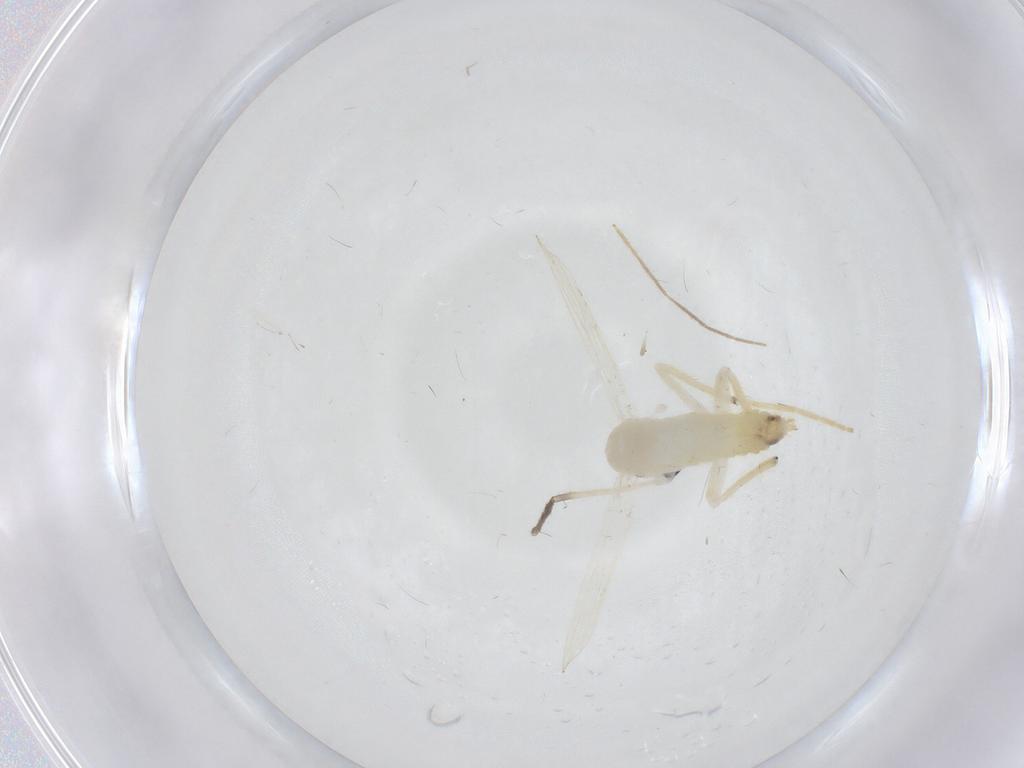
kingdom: Animalia
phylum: Arthropoda
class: Insecta
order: Diptera
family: Chironomidae
